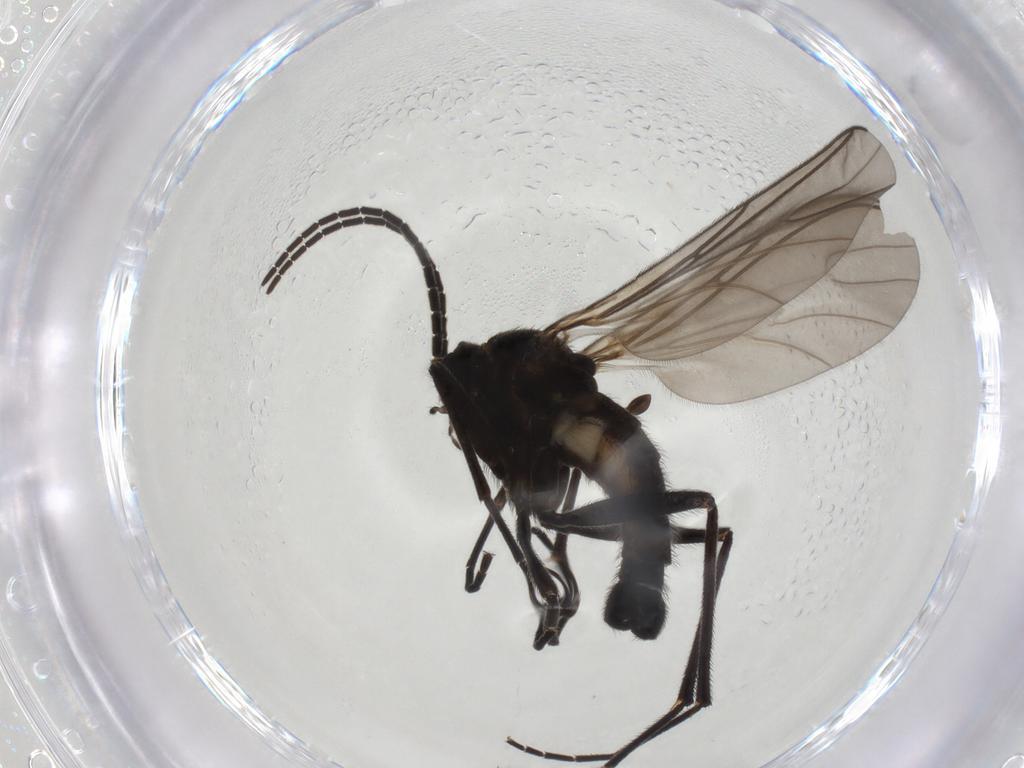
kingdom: Animalia
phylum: Arthropoda
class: Insecta
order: Diptera
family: Sciaridae
